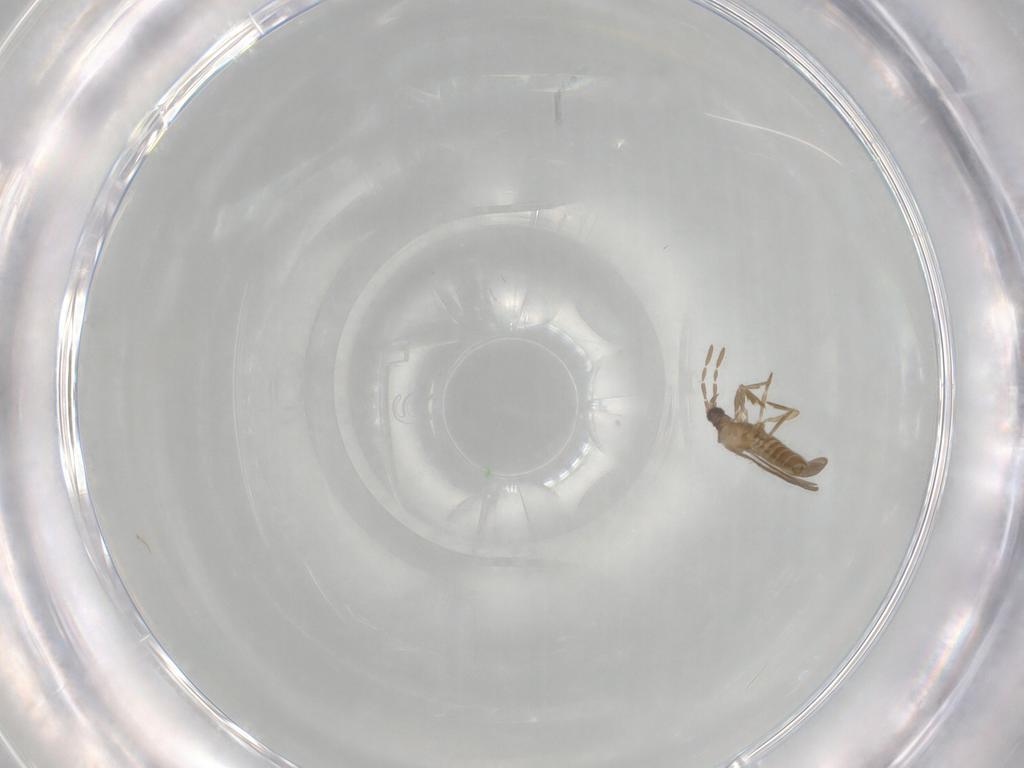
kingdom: Animalia
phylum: Arthropoda
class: Insecta
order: Hemiptera
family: Enicocephalidae
